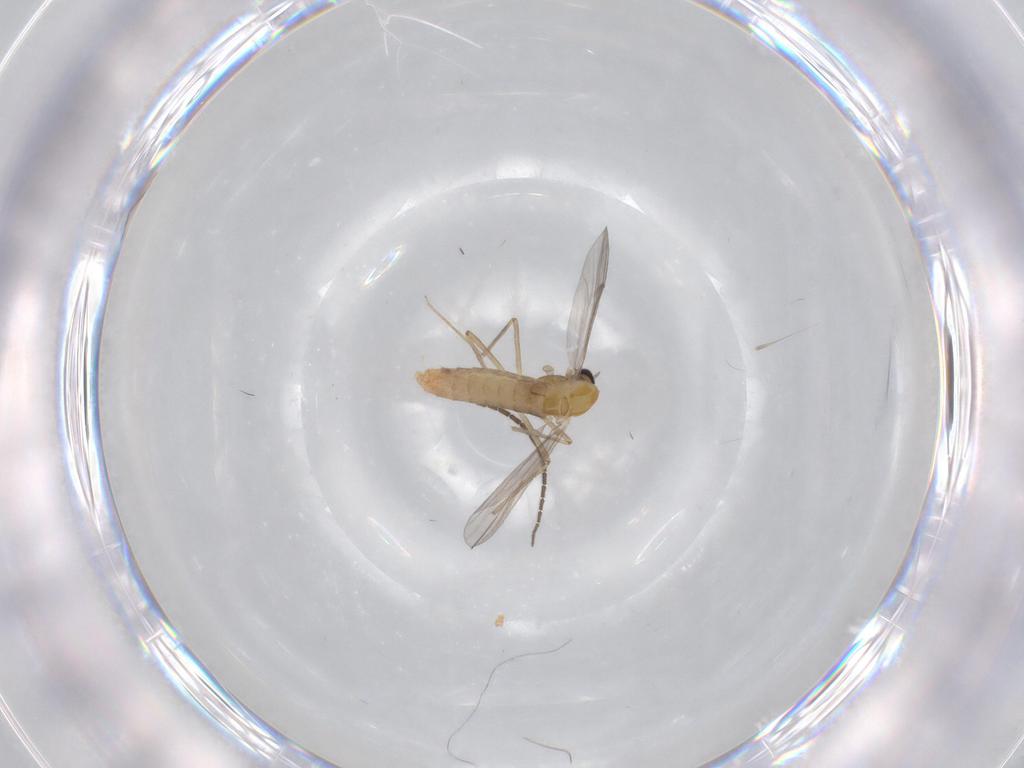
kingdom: Animalia
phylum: Arthropoda
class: Insecta
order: Diptera
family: Chironomidae
